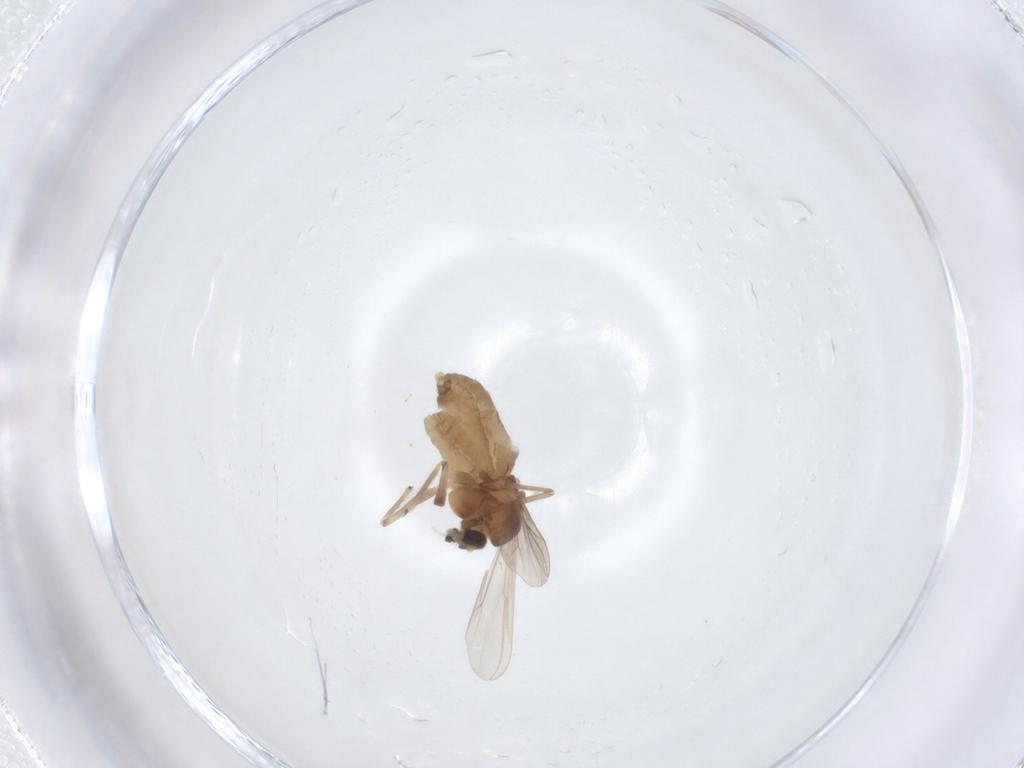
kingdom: Animalia
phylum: Arthropoda
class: Insecta
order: Diptera
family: Chironomidae
